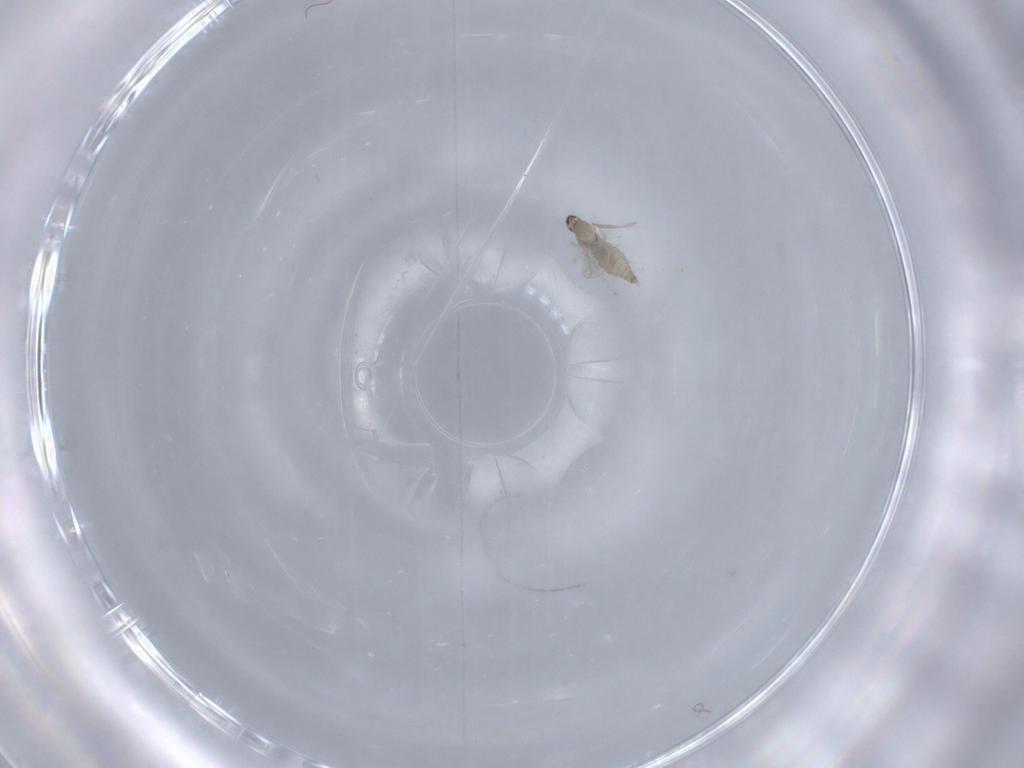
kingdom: Animalia
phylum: Arthropoda
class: Insecta
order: Diptera
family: Cecidomyiidae
